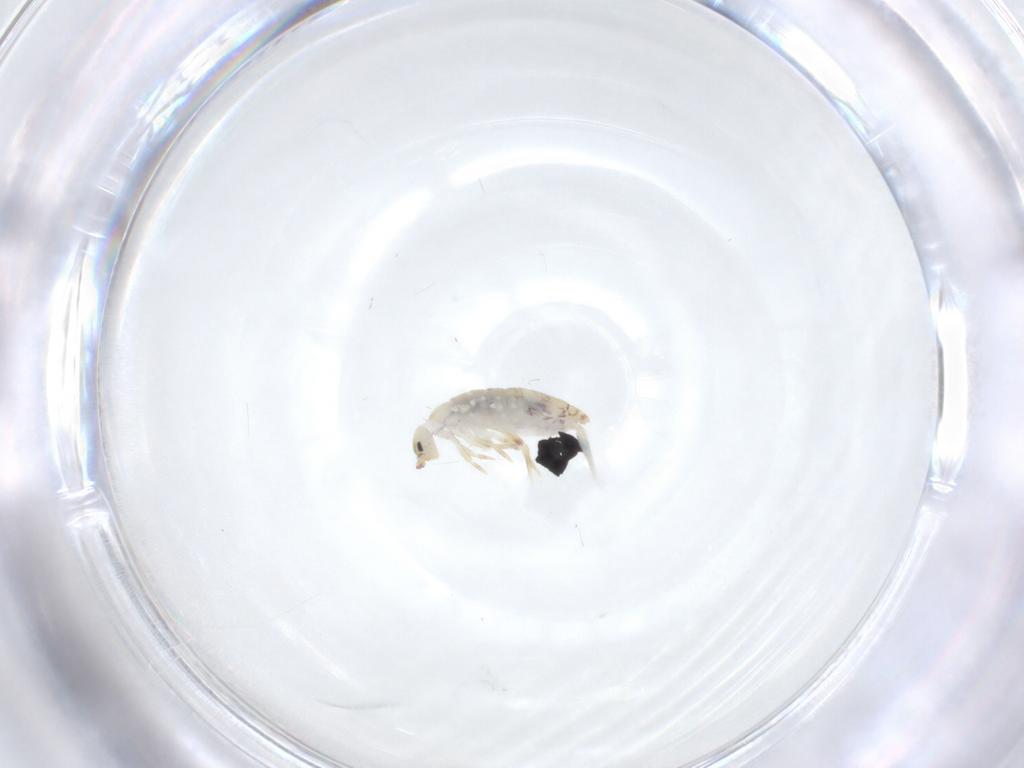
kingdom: Animalia
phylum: Arthropoda
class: Collembola
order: Entomobryomorpha
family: Entomobryidae
